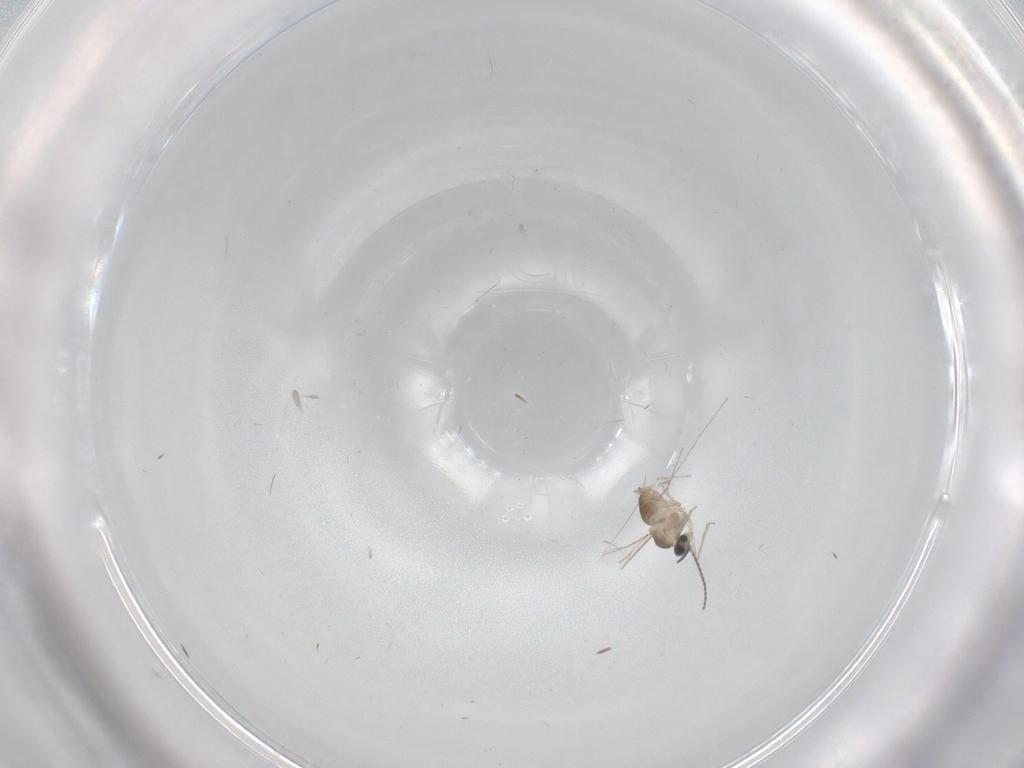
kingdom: Animalia
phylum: Arthropoda
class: Insecta
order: Diptera
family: Cecidomyiidae
